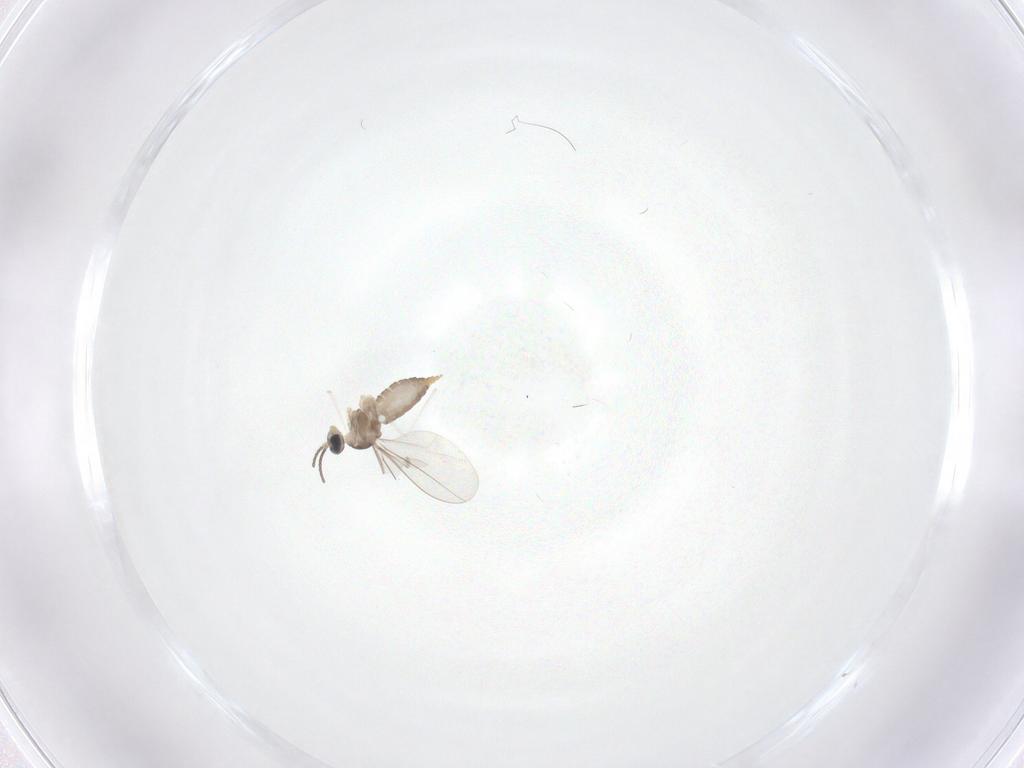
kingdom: Animalia
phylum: Arthropoda
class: Insecta
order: Diptera
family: Cecidomyiidae
